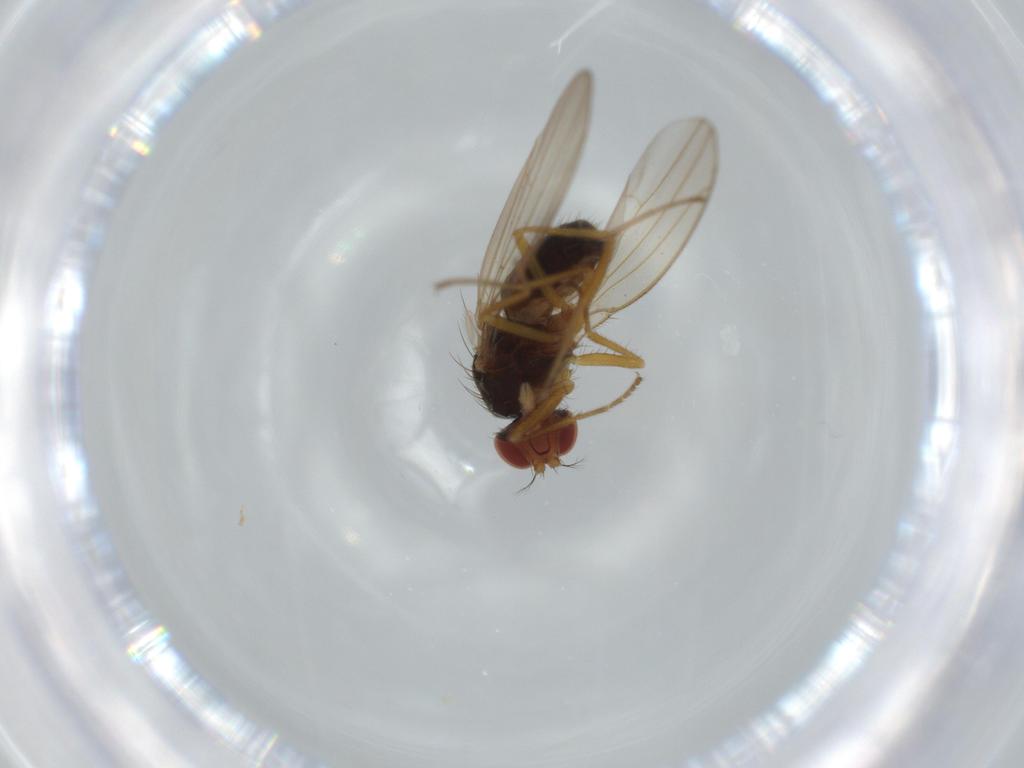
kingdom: Animalia
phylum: Arthropoda
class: Insecta
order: Diptera
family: Drosophilidae
